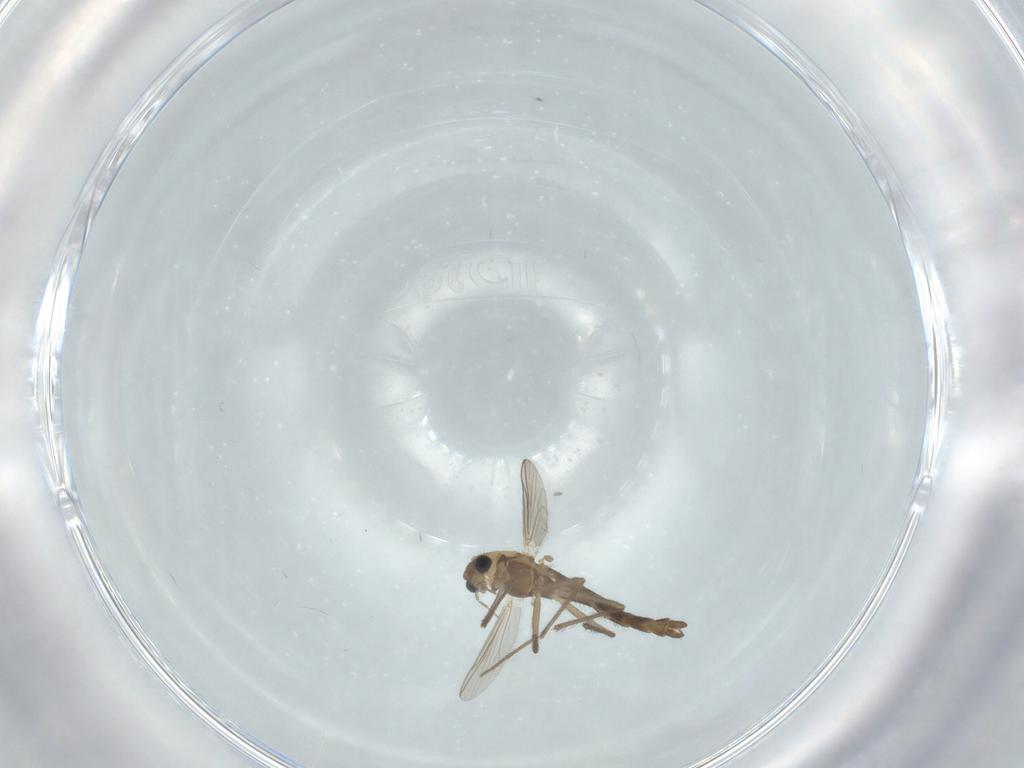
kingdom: Animalia
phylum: Arthropoda
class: Insecta
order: Diptera
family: Chironomidae
